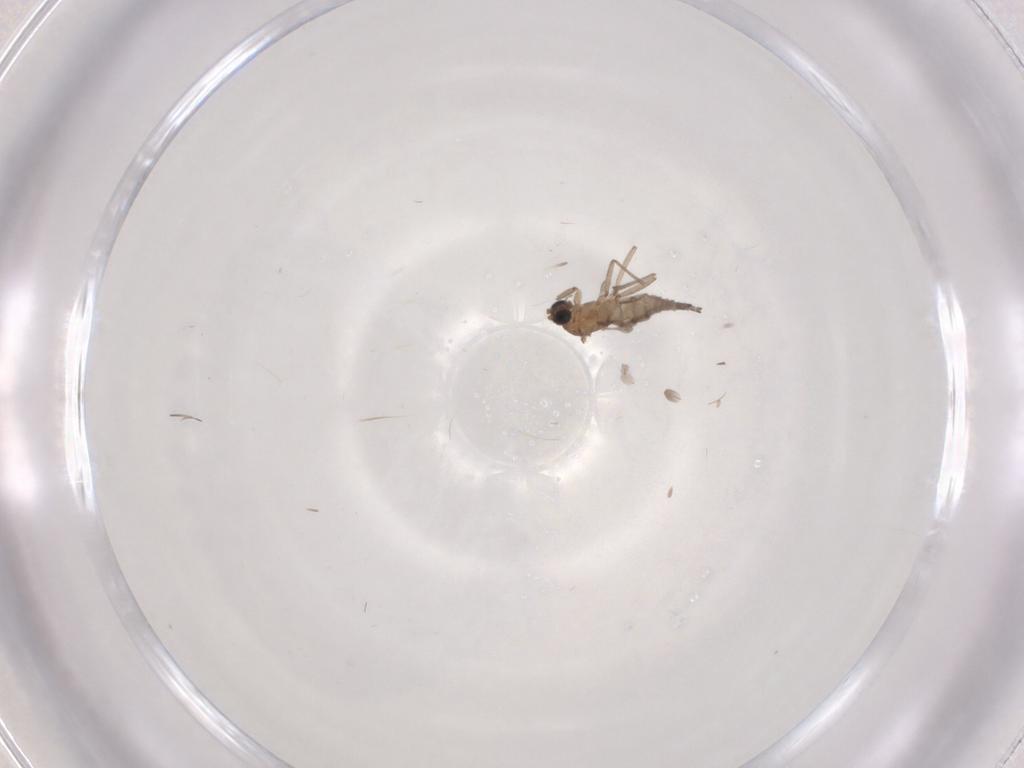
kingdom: Animalia
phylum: Arthropoda
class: Insecta
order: Diptera
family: Sciaridae
